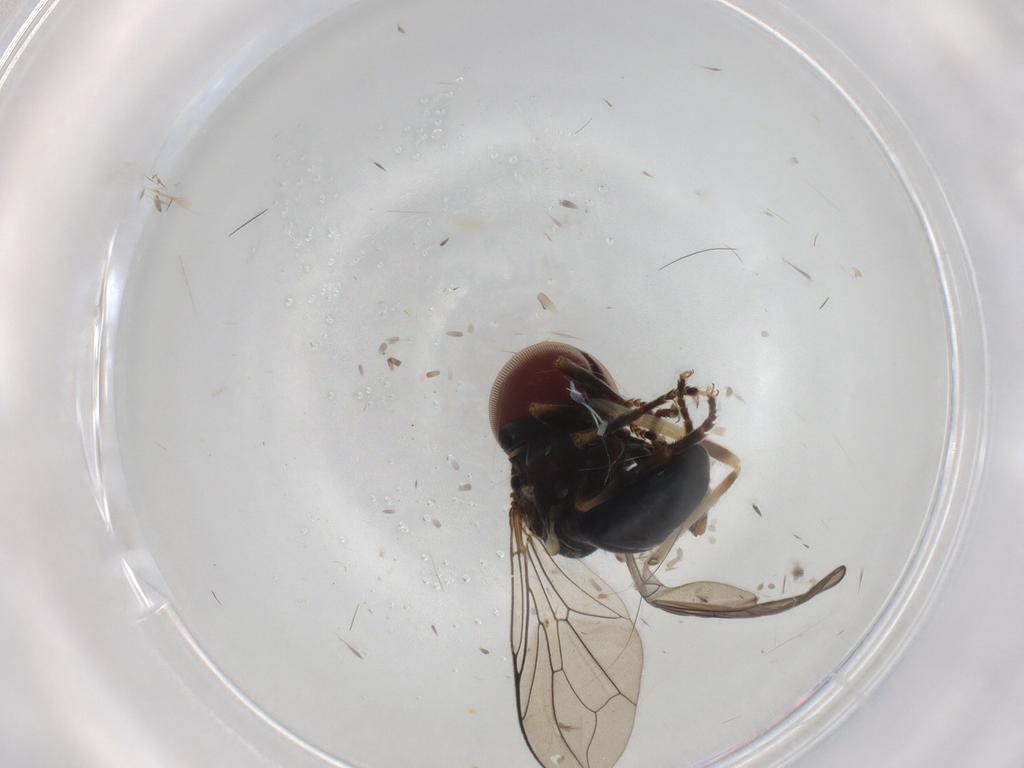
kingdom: Animalia
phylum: Arthropoda
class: Insecta
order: Diptera
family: Pipunculidae
